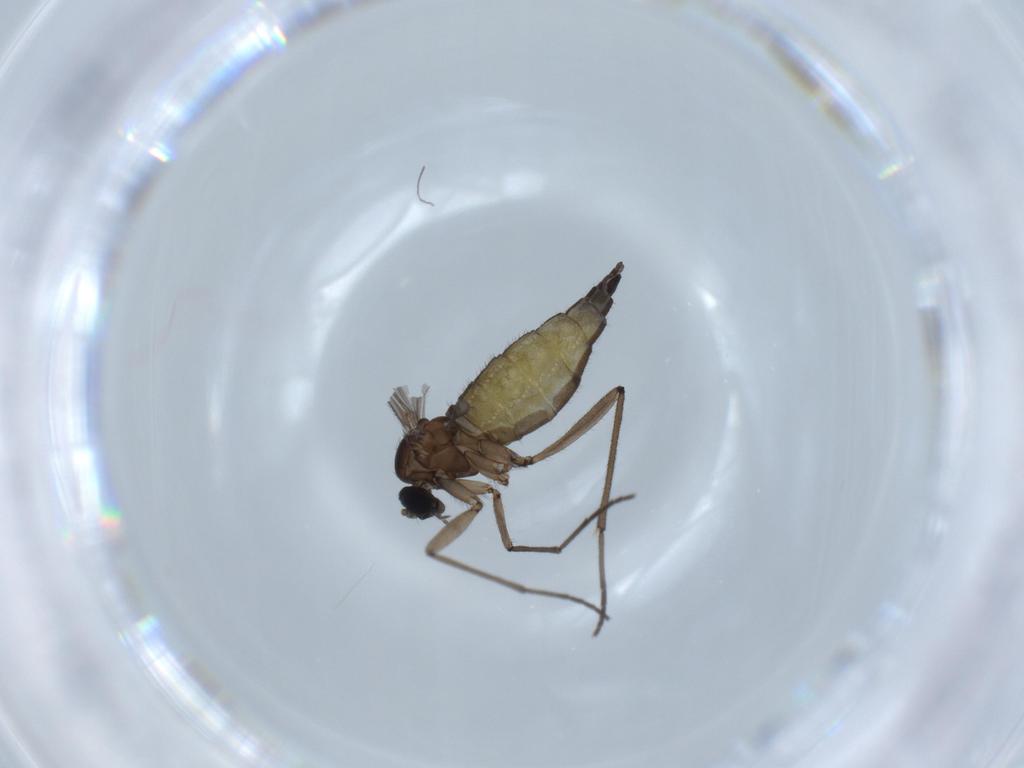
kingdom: Animalia
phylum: Arthropoda
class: Insecta
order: Diptera
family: Sciaridae
